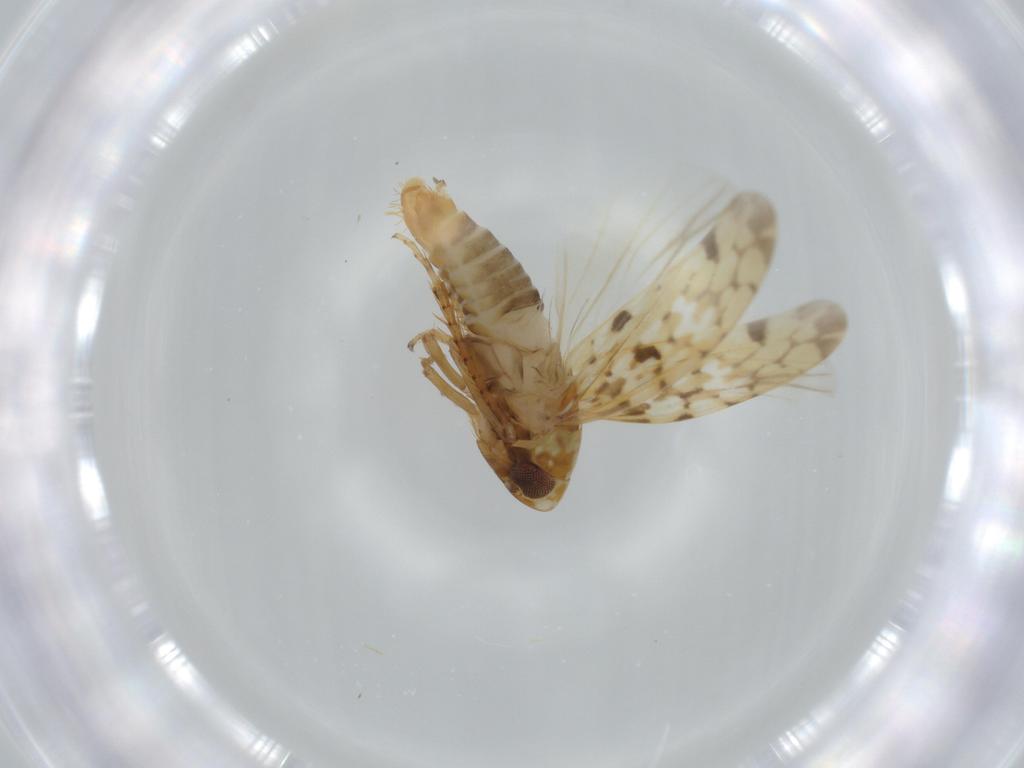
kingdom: Animalia
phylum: Arthropoda
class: Insecta
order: Hemiptera
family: Cicadellidae
